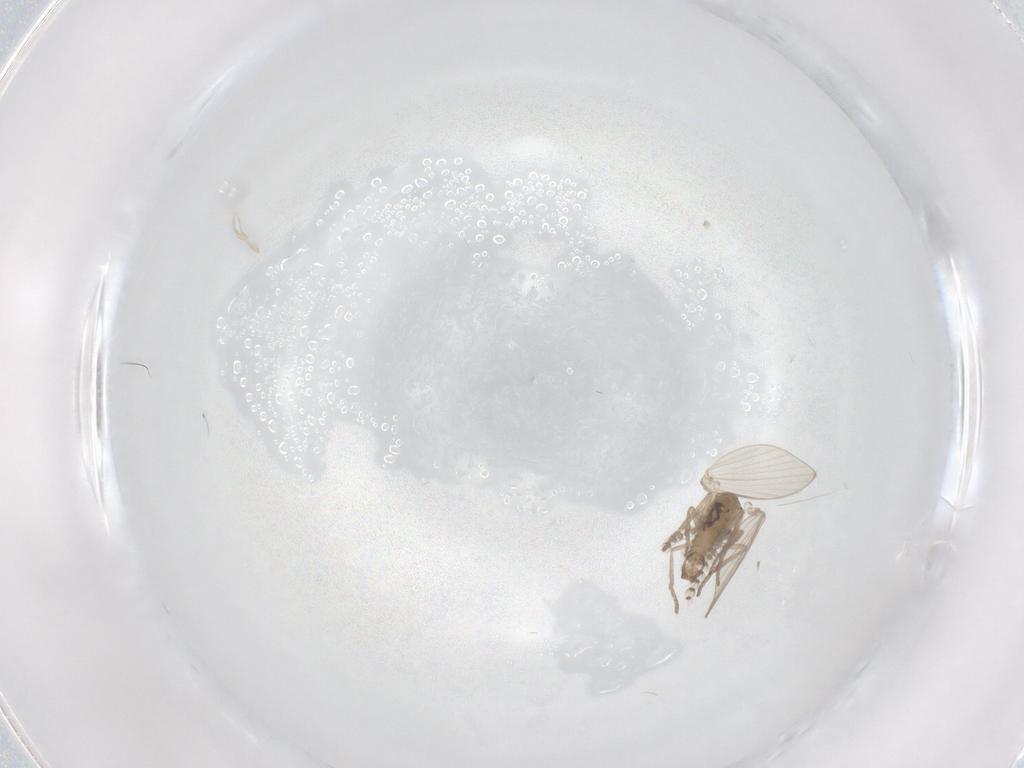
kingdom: Animalia
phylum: Arthropoda
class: Insecta
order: Diptera
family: Psychodidae
